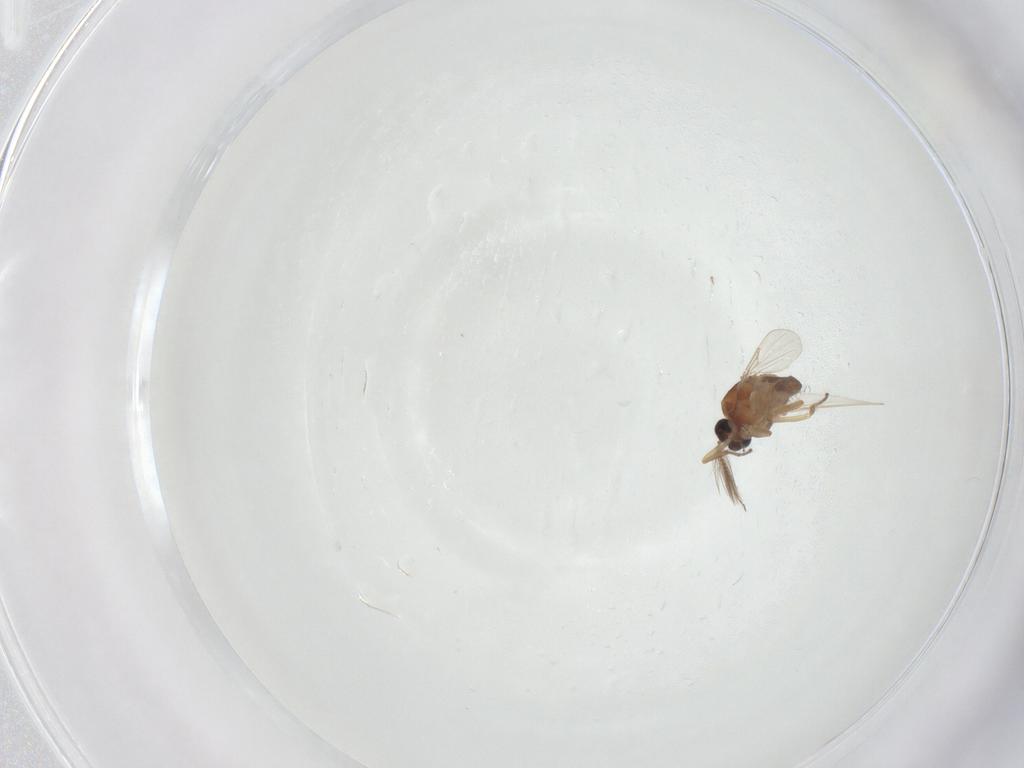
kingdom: Animalia
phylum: Arthropoda
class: Insecta
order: Diptera
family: Ceratopogonidae
